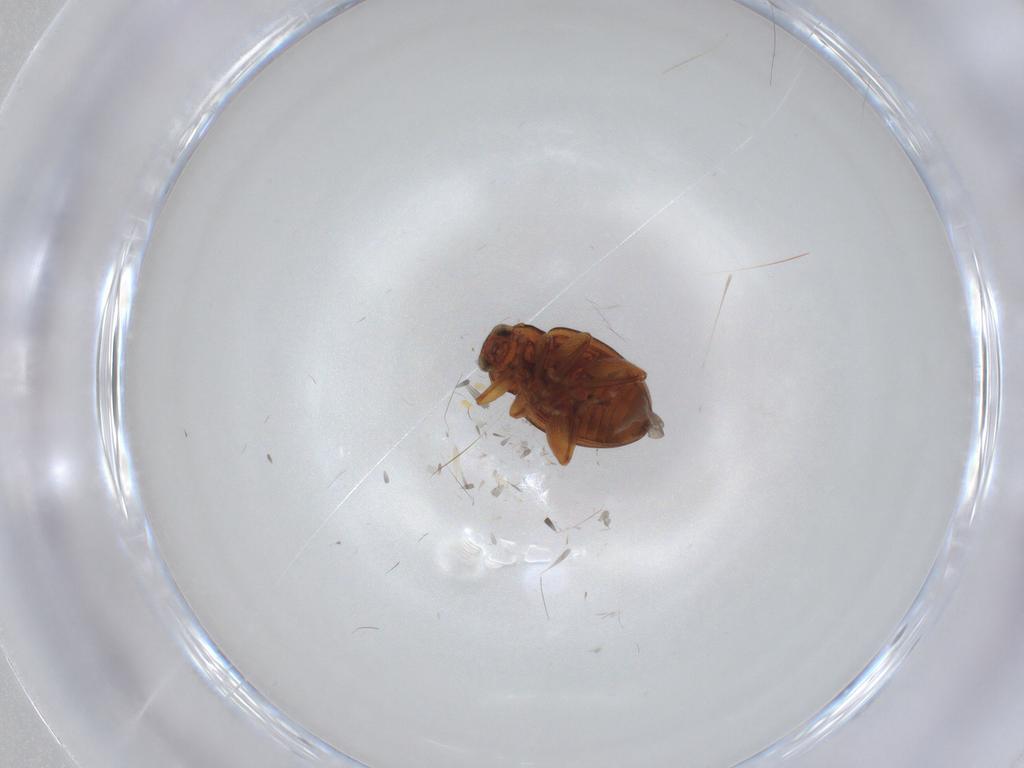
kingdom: Animalia
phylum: Arthropoda
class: Insecta
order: Coleoptera
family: Chrysomelidae
